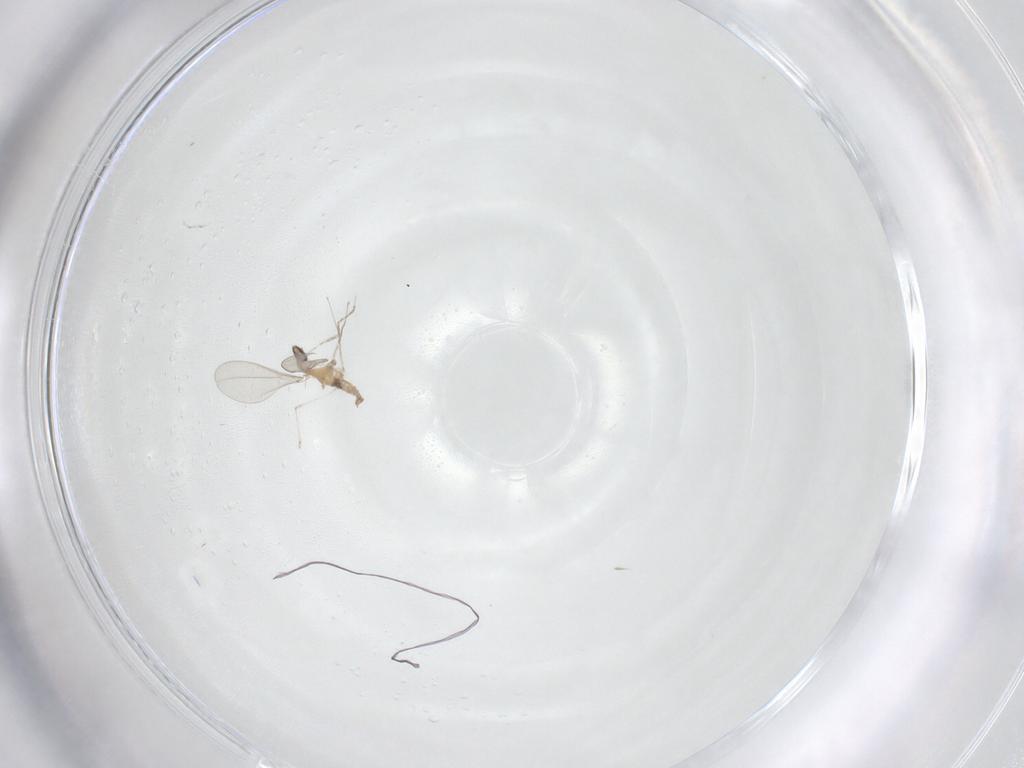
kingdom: Animalia
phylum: Arthropoda
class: Insecta
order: Diptera
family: Cecidomyiidae
